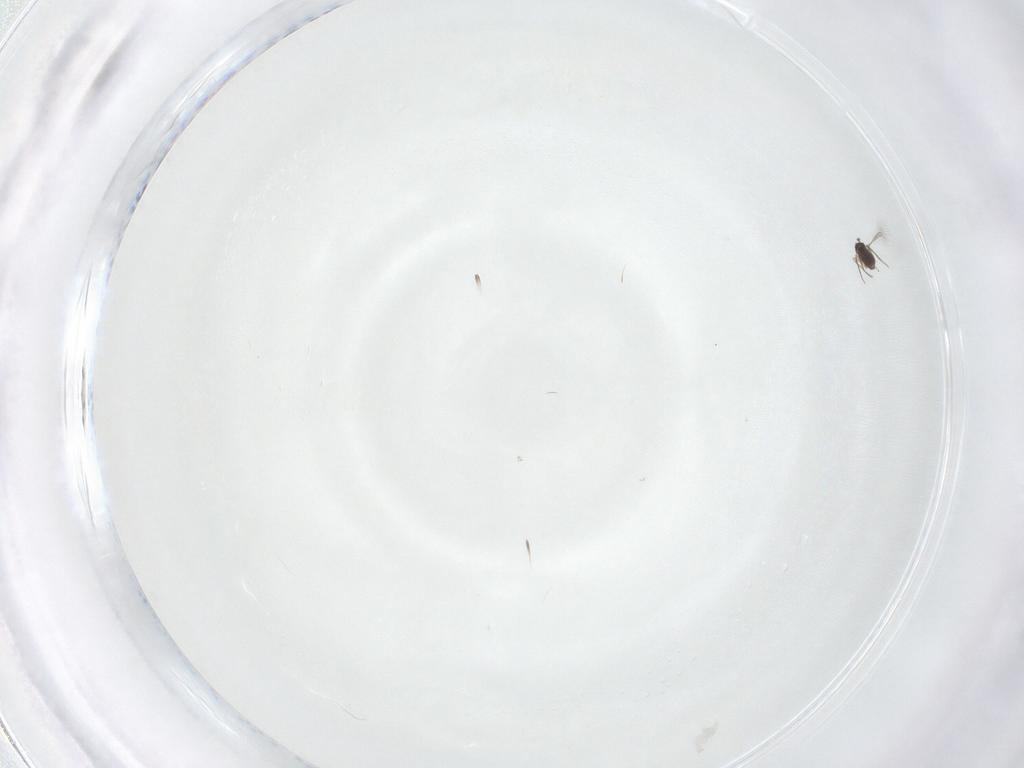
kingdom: Animalia
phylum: Arthropoda
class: Insecta
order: Hymenoptera
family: Mymaridae
